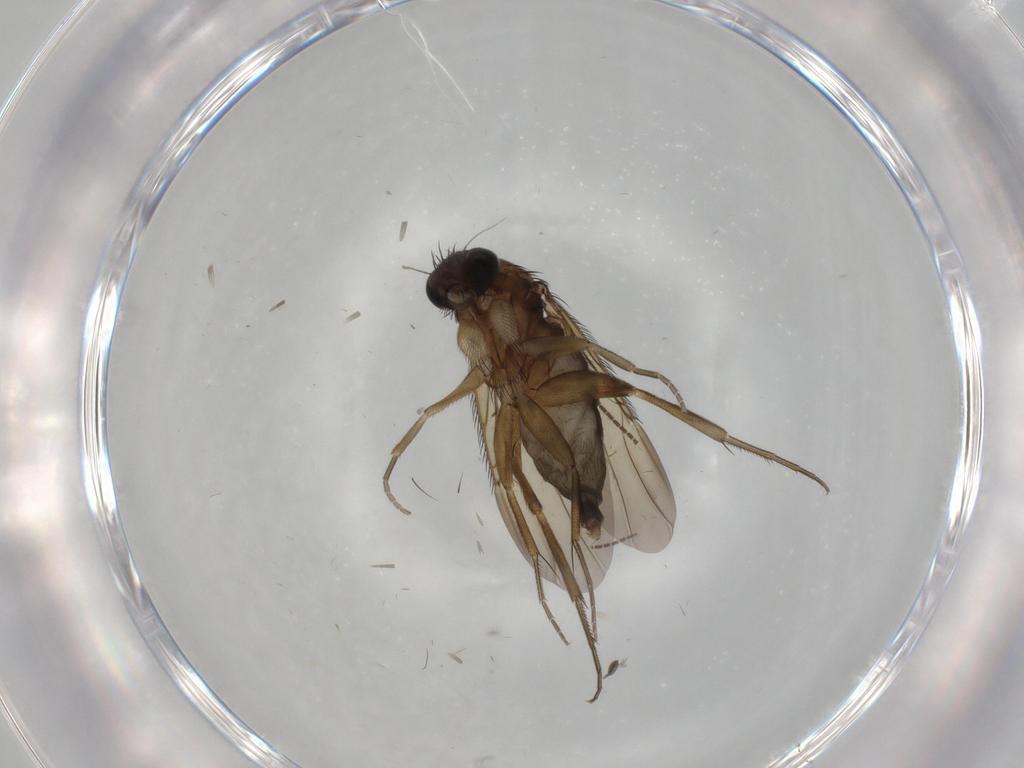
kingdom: Animalia
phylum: Arthropoda
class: Insecta
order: Diptera
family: Phoridae
